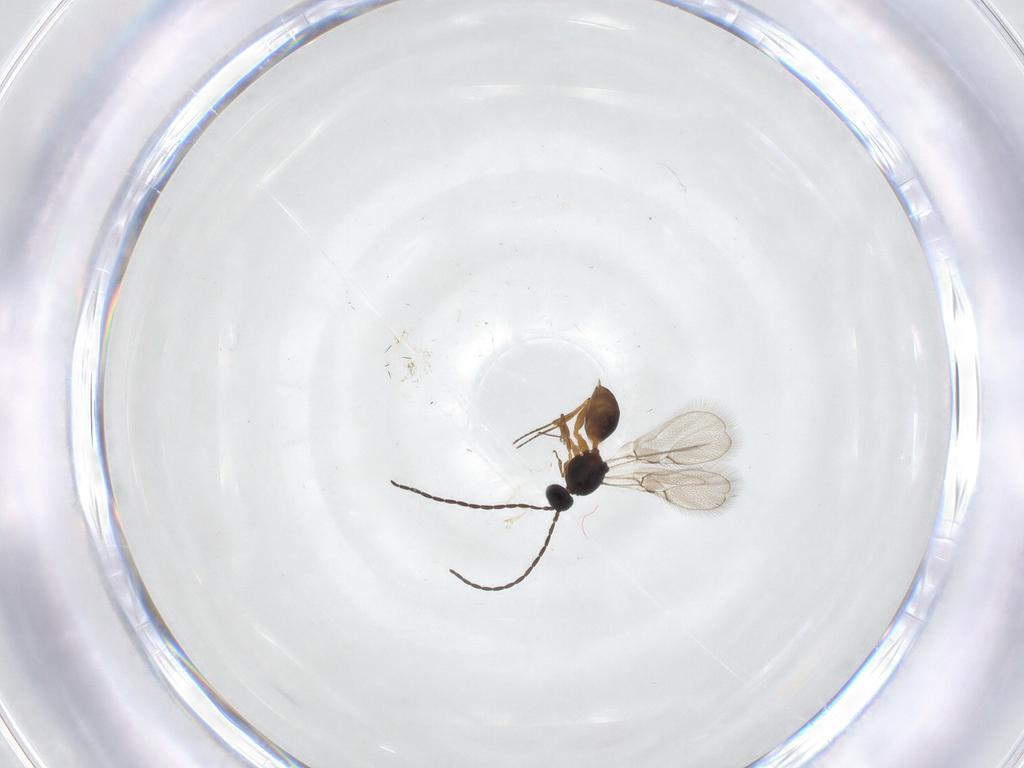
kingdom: Animalia
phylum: Arthropoda
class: Insecta
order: Hymenoptera
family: Figitidae
